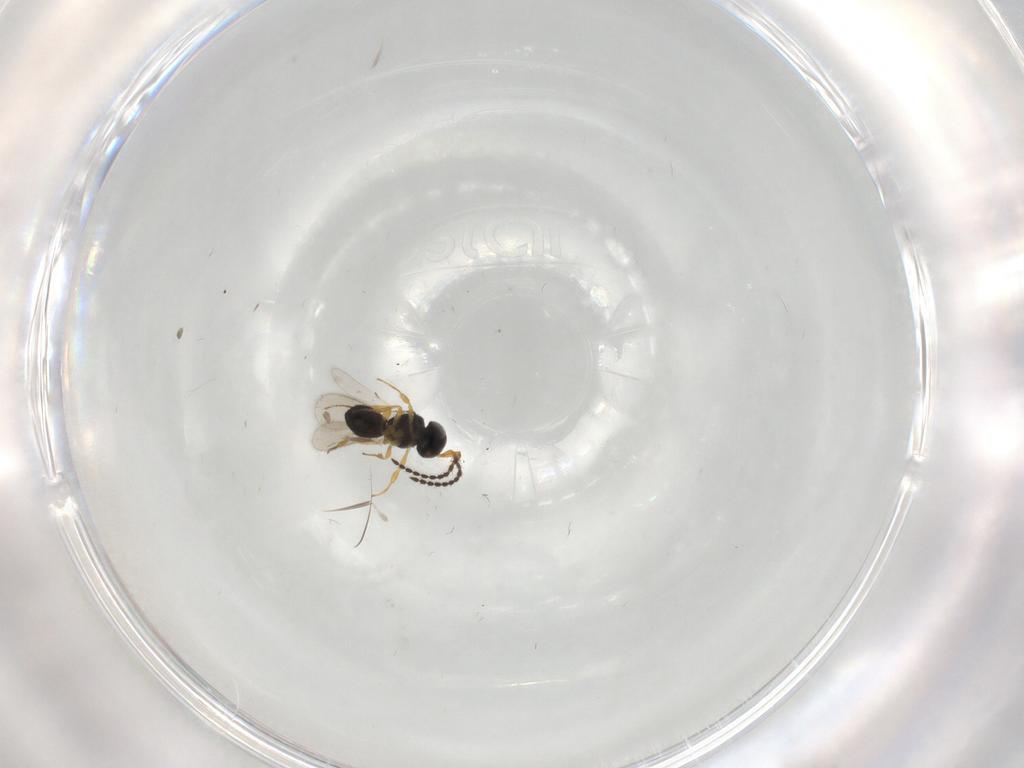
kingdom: Animalia
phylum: Arthropoda
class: Insecta
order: Hymenoptera
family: Scelionidae
